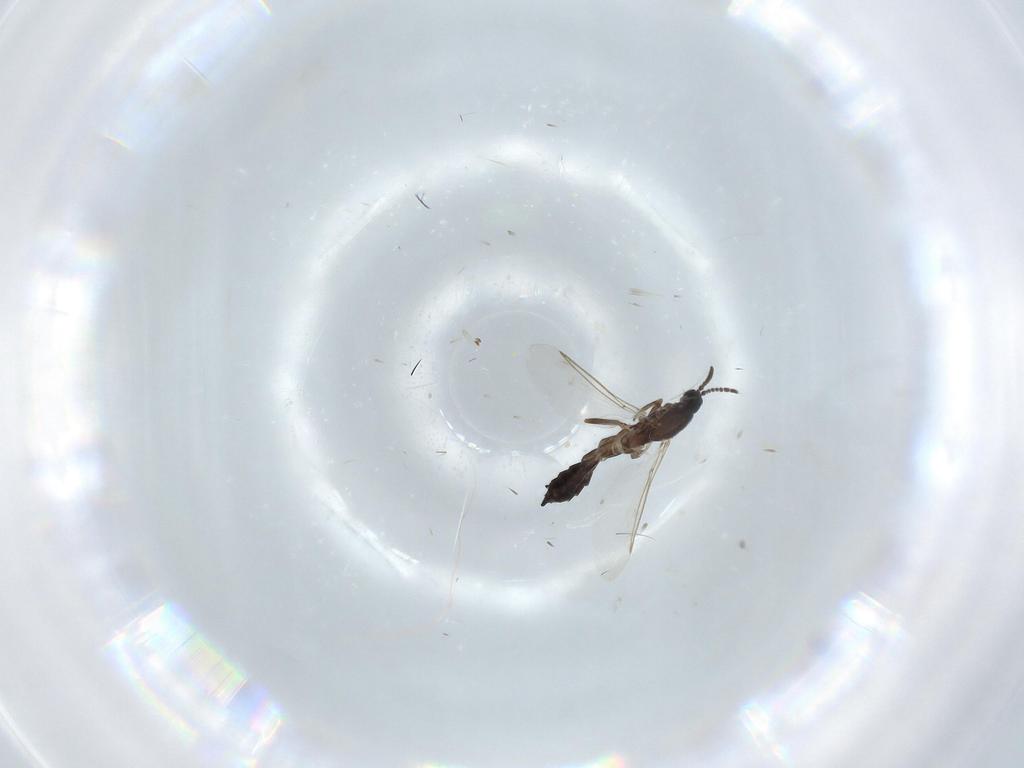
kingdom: Animalia
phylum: Arthropoda
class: Insecta
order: Diptera
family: Scatopsidae
